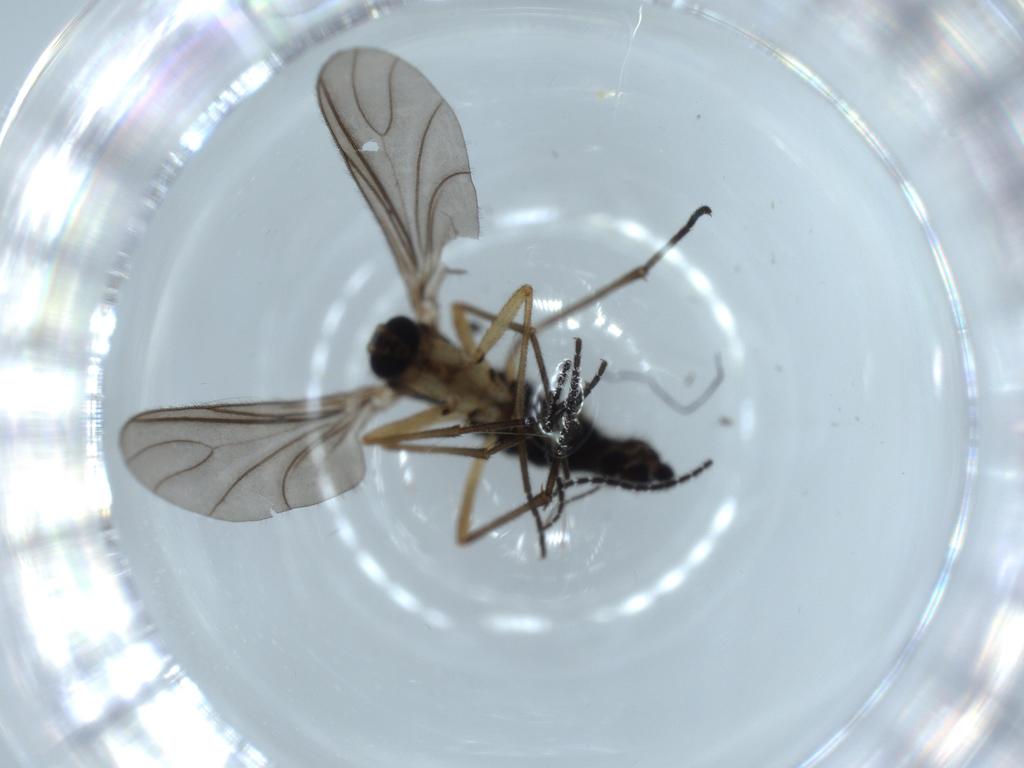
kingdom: Animalia
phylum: Arthropoda
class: Insecta
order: Diptera
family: Sciaridae
